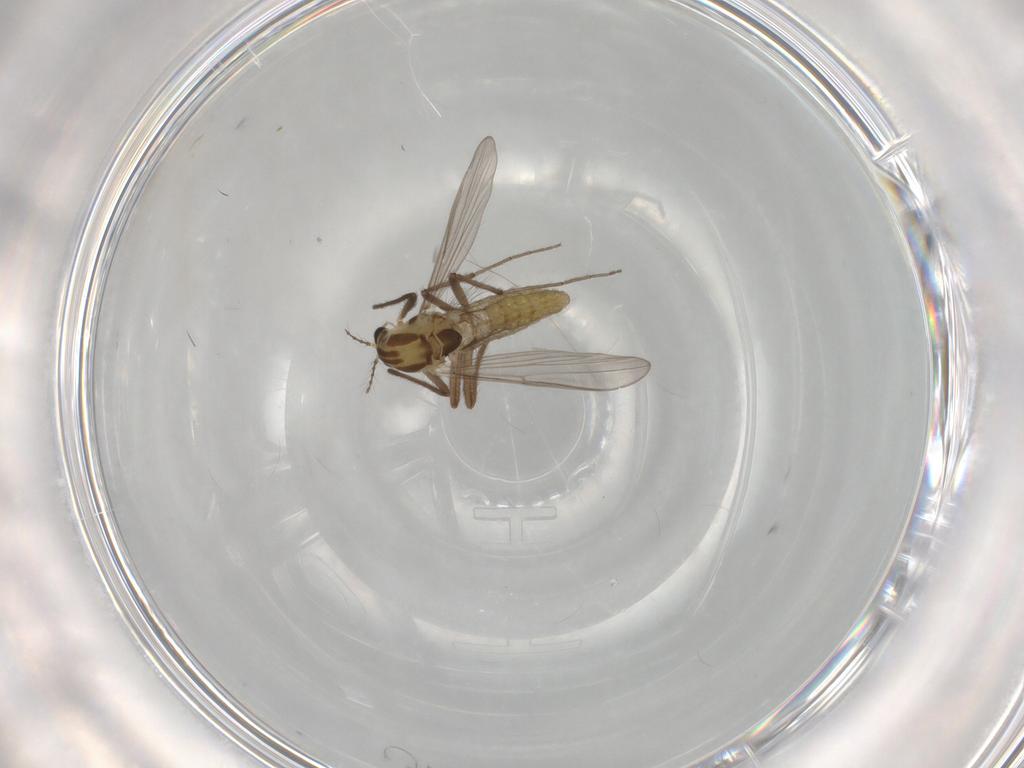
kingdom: Animalia
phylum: Arthropoda
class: Insecta
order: Diptera
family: Chironomidae
